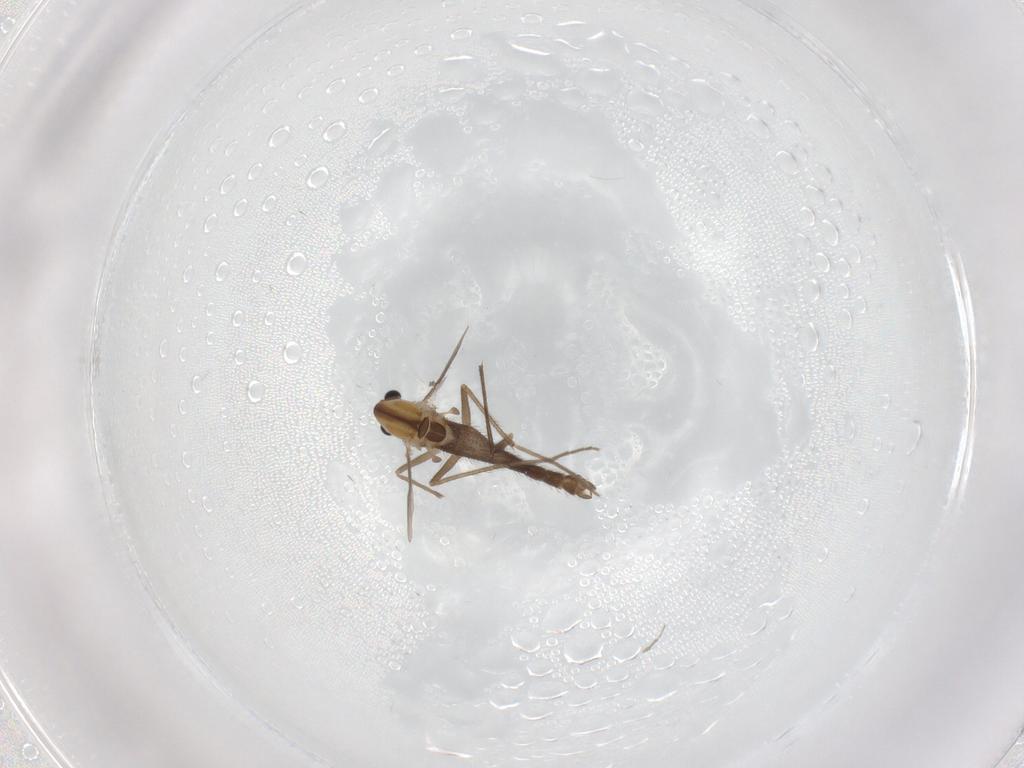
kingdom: Animalia
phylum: Arthropoda
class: Insecta
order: Diptera
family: Chironomidae
